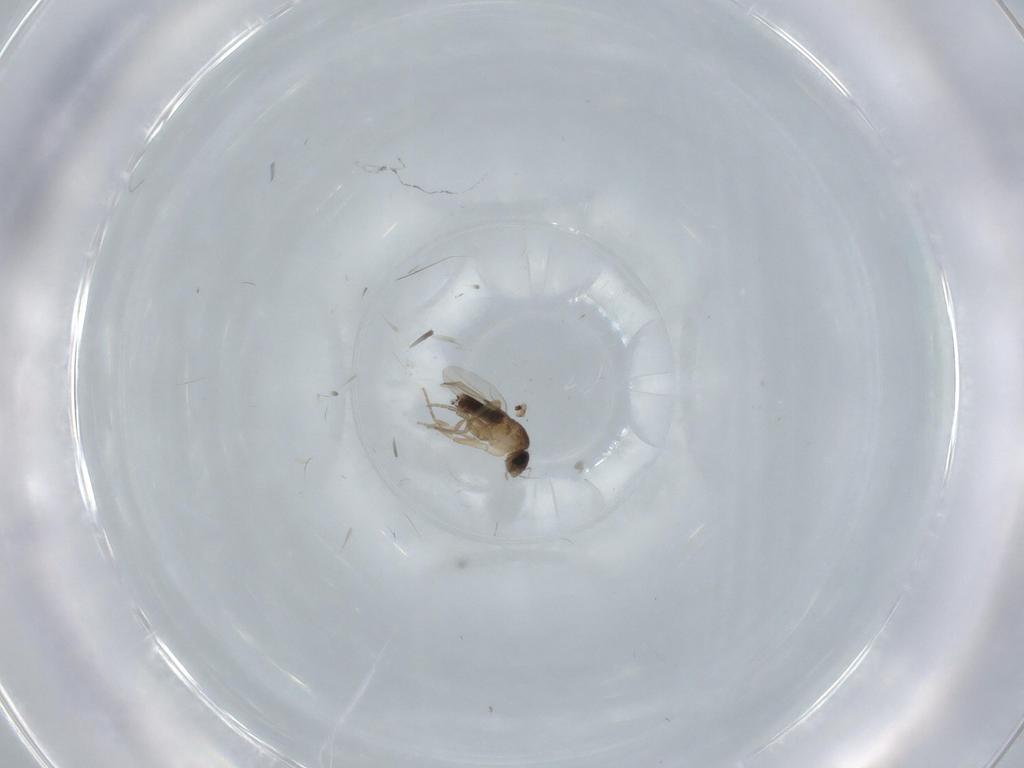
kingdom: Animalia
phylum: Arthropoda
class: Insecta
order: Diptera
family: Phoridae
